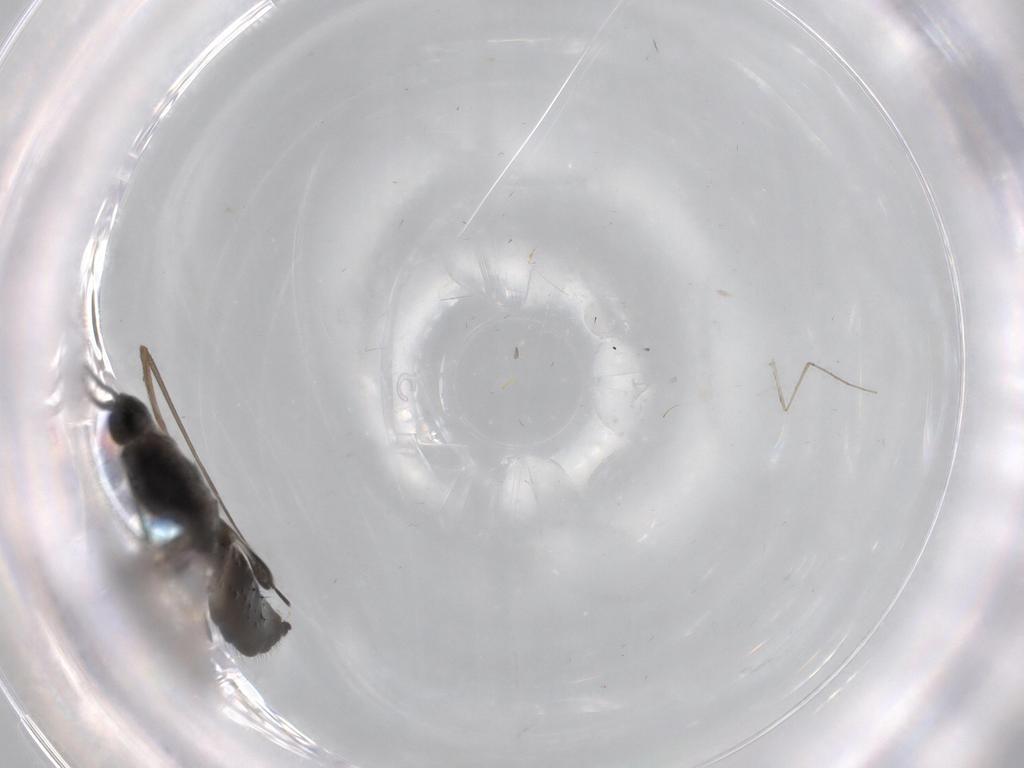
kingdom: Animalia
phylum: Arthropoda
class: Insecta
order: Diptera
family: Sciaridae
